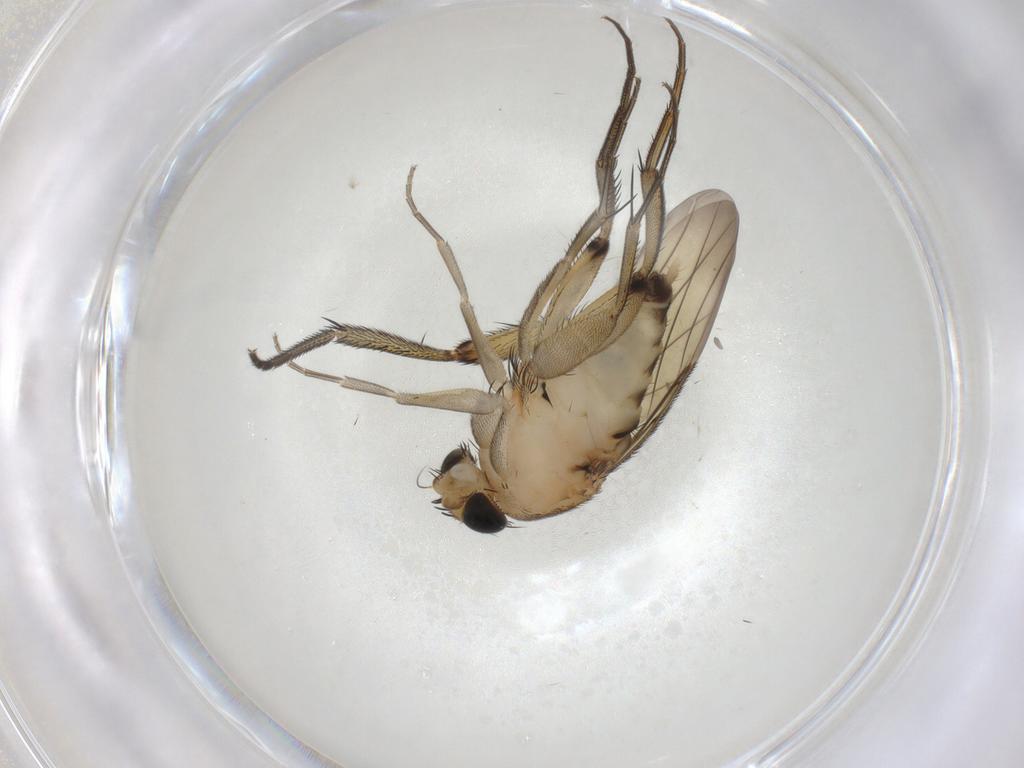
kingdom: Animalia
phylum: Arthropoda
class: Insecta
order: Diptera
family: Phoridae
